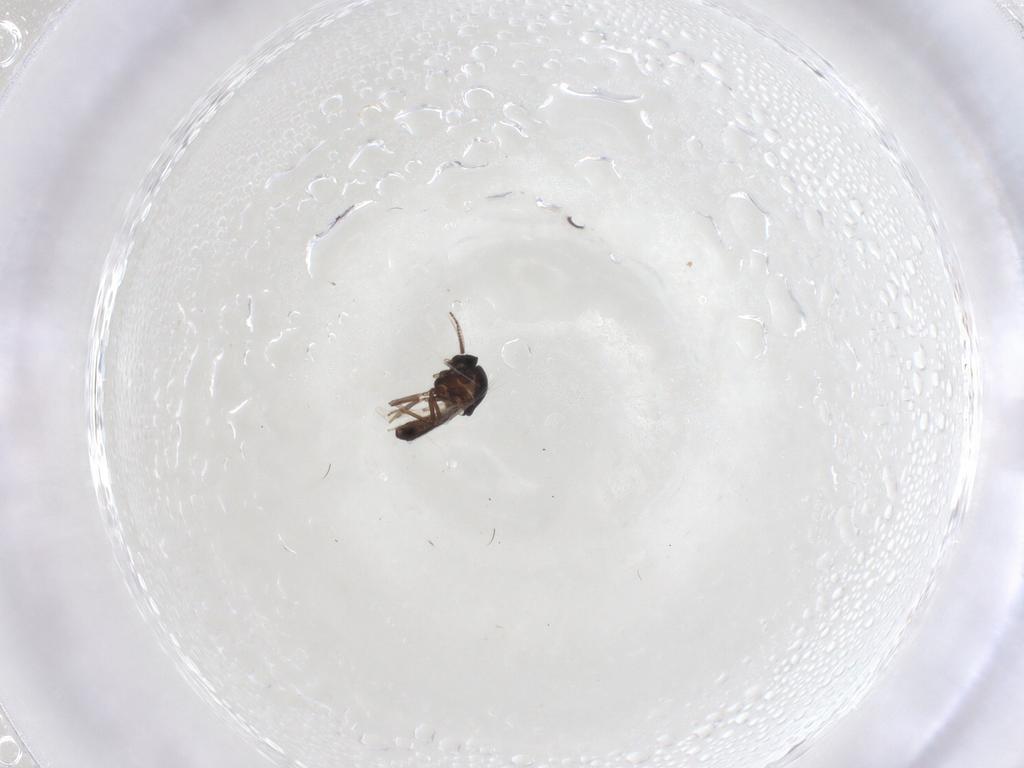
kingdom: Animalia
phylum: Arthropoda
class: Insecta
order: Diptera
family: Ceratopogonidae
